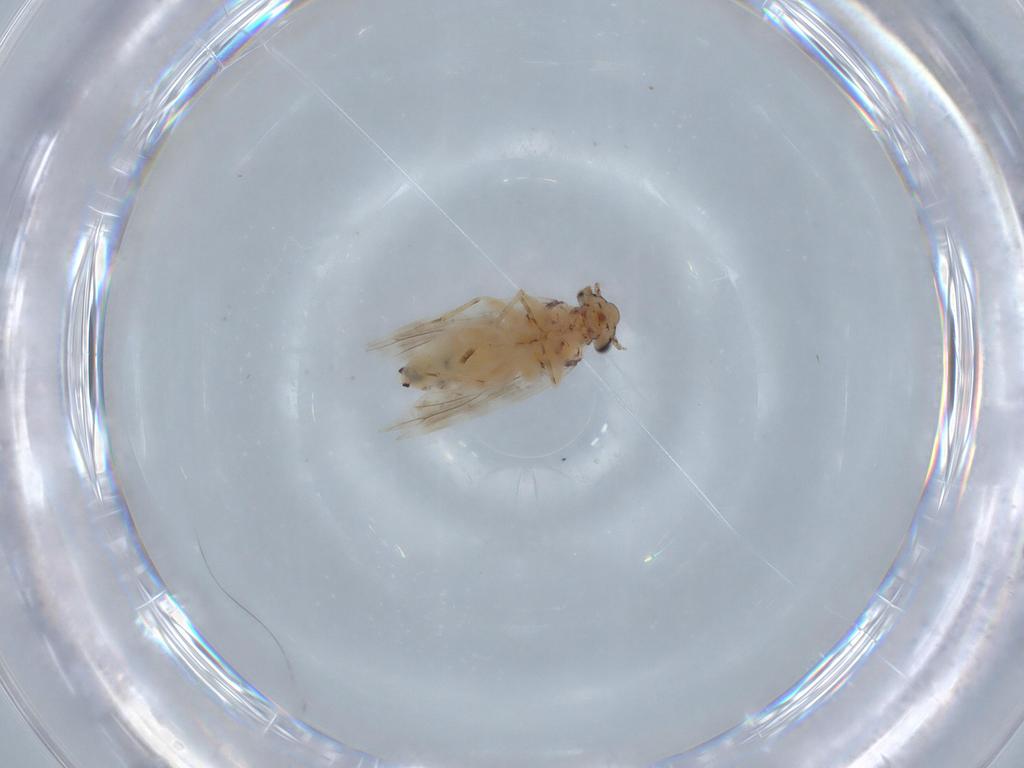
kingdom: Animalia
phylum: Arthropoda
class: Insecta
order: Psocodea
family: Lepidopsocidae
